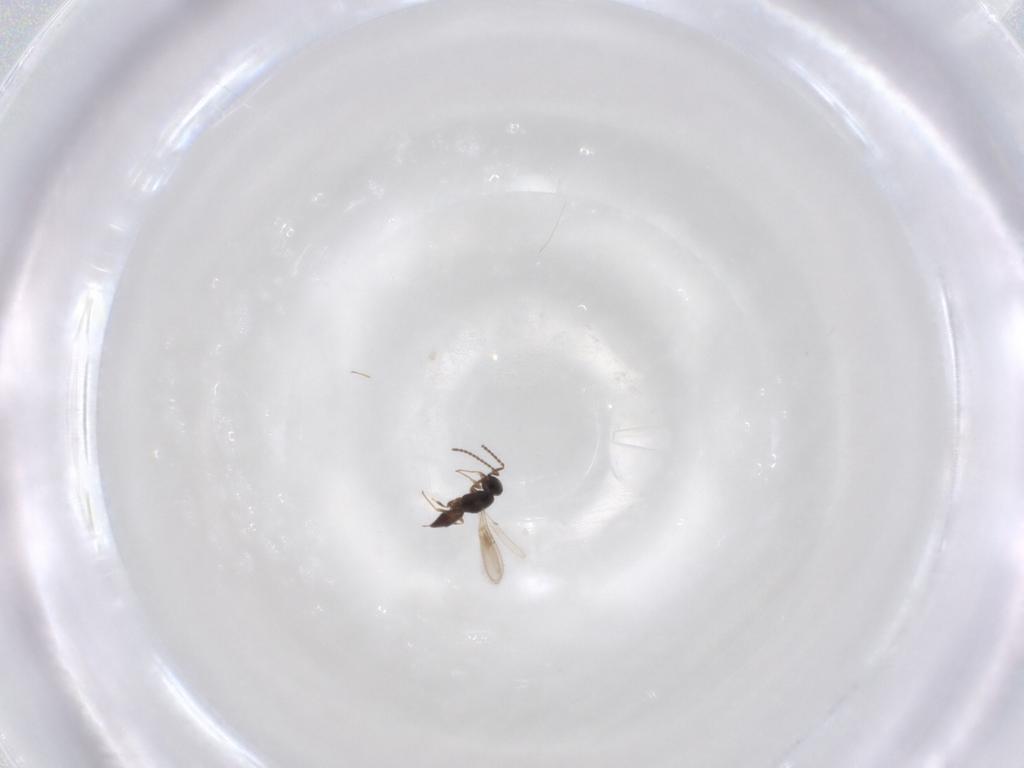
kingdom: Animalia
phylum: Arthropoda
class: Insecta
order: Hymenoptera
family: Scelionidae
